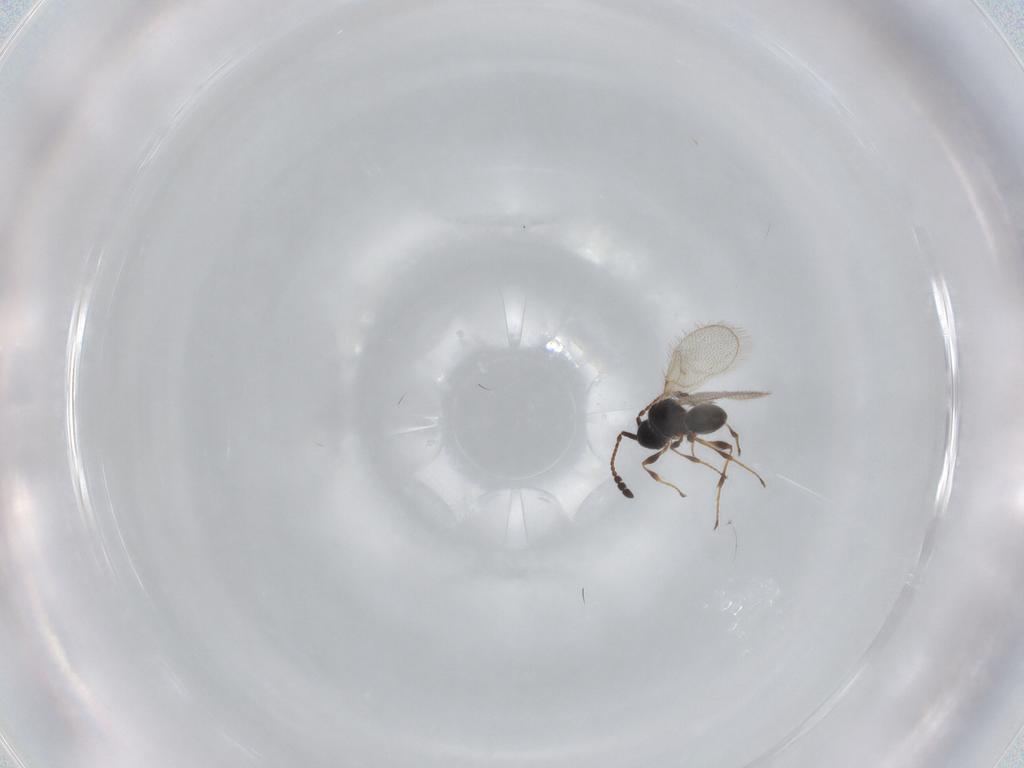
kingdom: Animalia
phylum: Arthropoda
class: Insecta
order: Hymenoptera
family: Diapriidae
